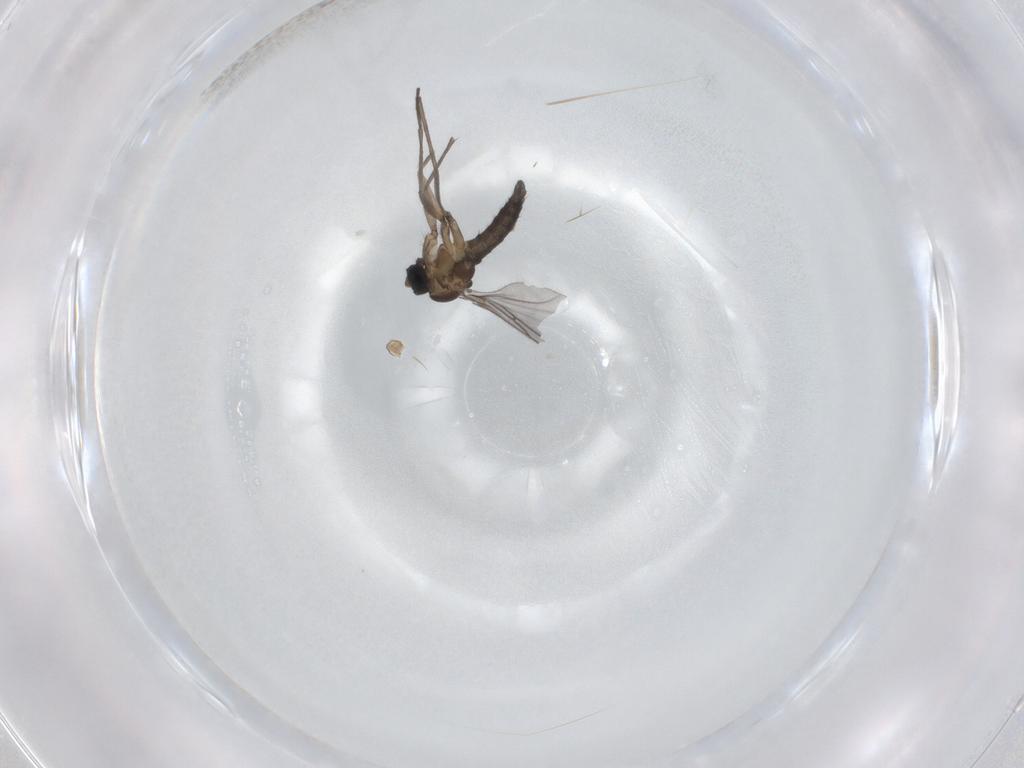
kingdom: Animalia
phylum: Arthropoda
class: Insecta
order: Diptera
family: Sciaridae
